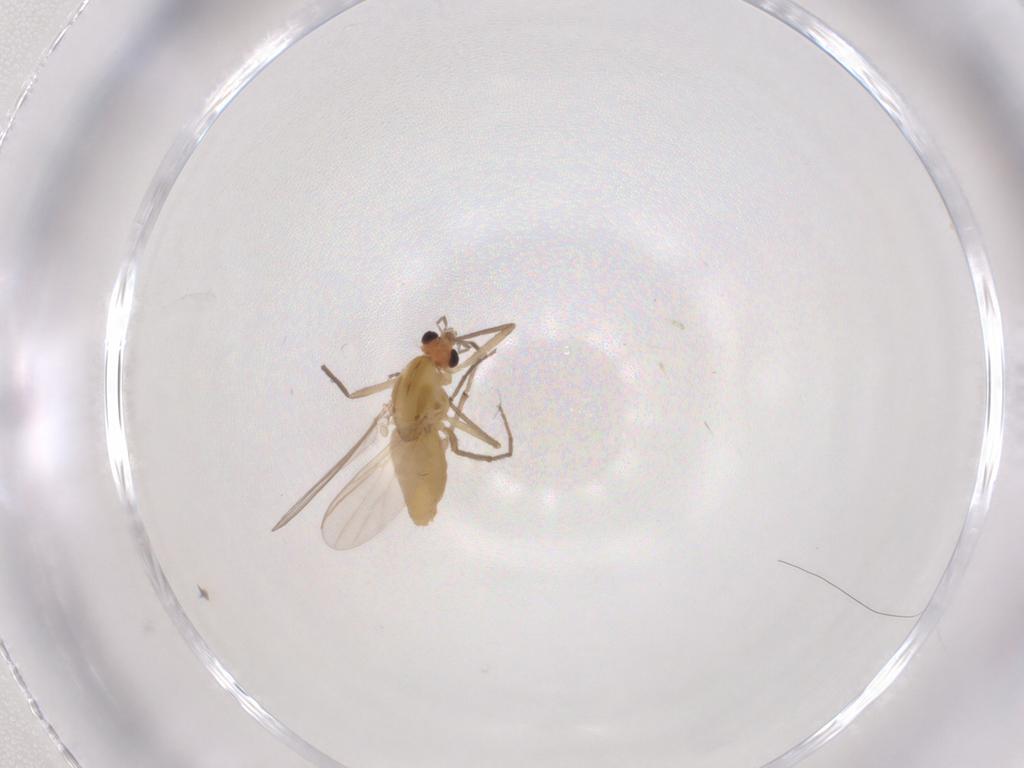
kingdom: Animalia
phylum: Arthropoda
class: Insecta
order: Diptera
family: Chironomidae
